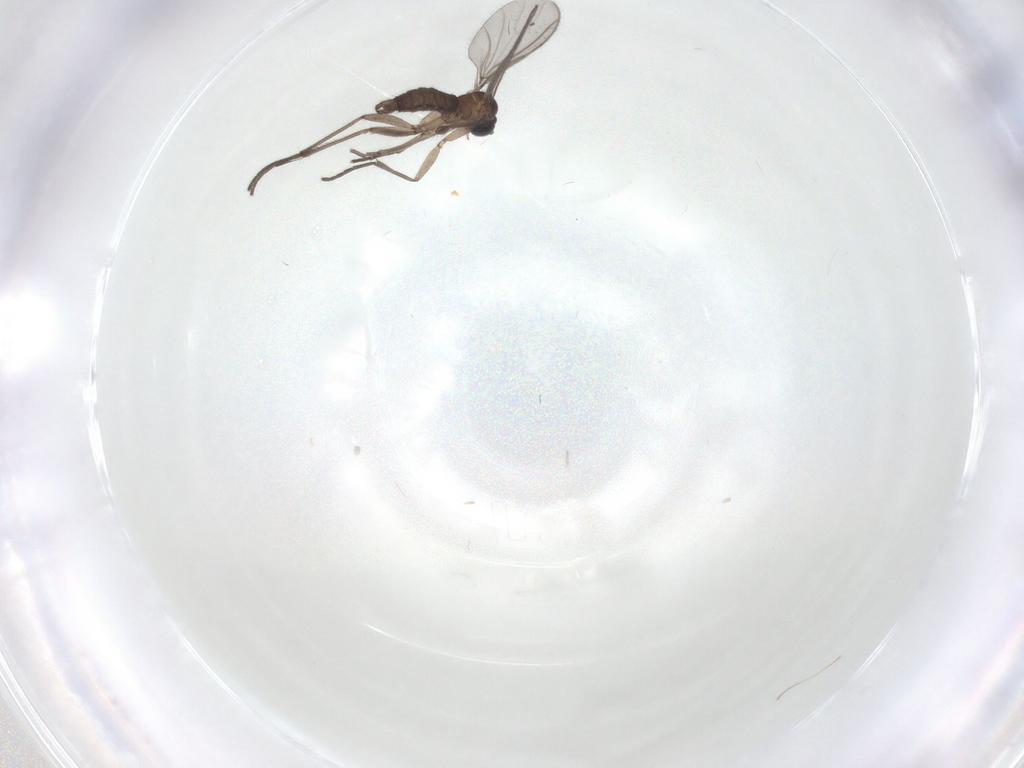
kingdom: Animalia
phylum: Arthropoda
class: Insecta
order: Diptera
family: Sciaridae
